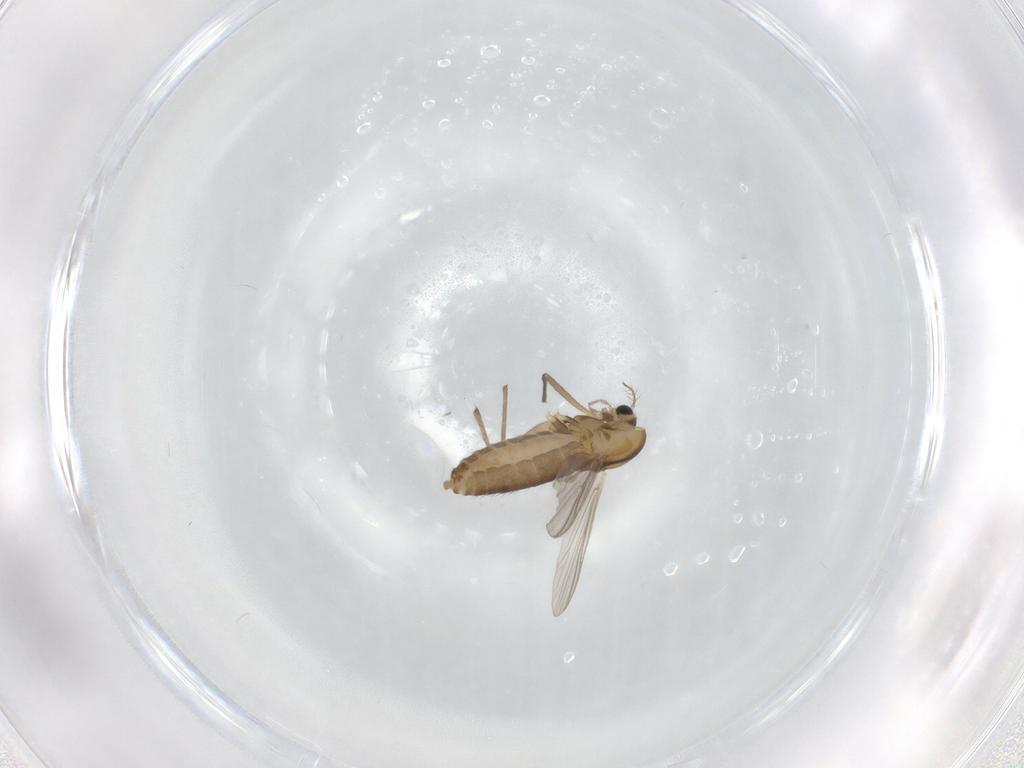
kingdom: Animalia
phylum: Arthropoda
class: Insecta
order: Diptera
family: Chironomidae
